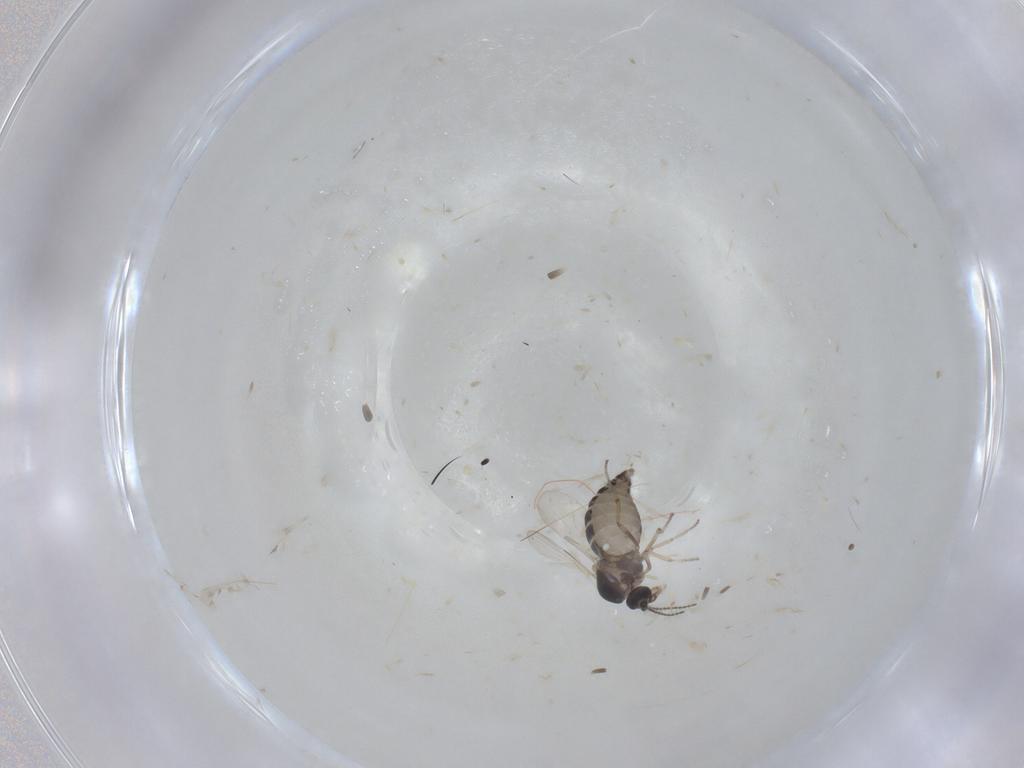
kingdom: Animalia
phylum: Arthropoda
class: Insecta
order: Diptera
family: Ceratopogonidae
